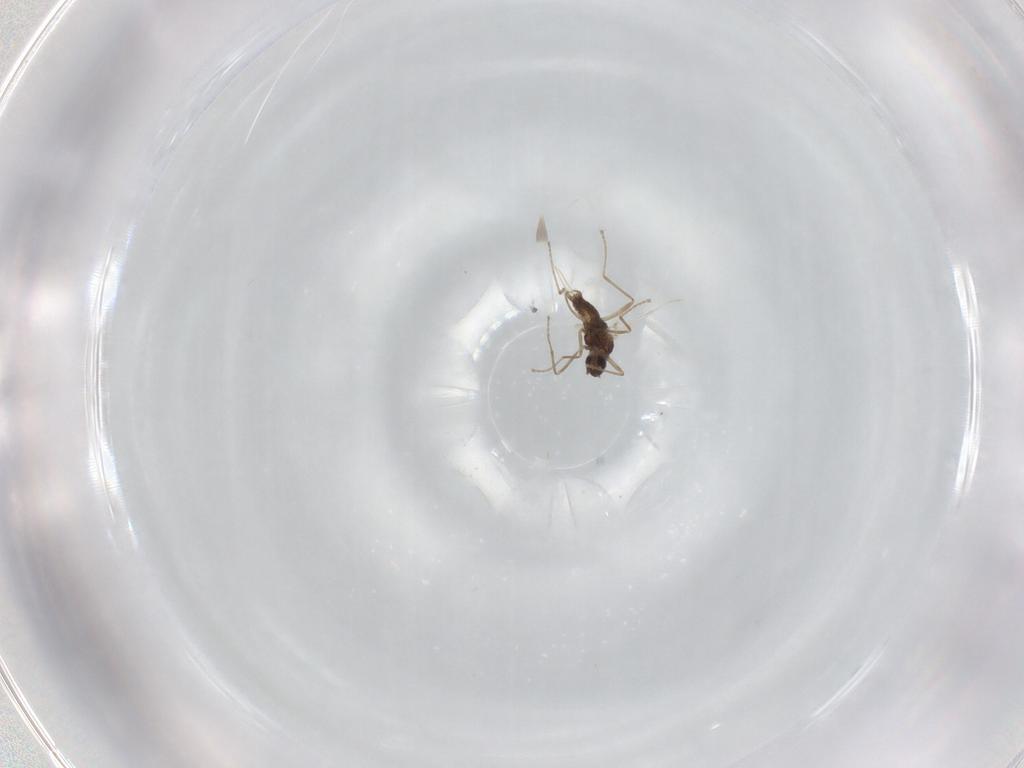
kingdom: Animalia
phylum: Arthropoda
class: Insecta
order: Diptera
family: Cecidomyiidae
